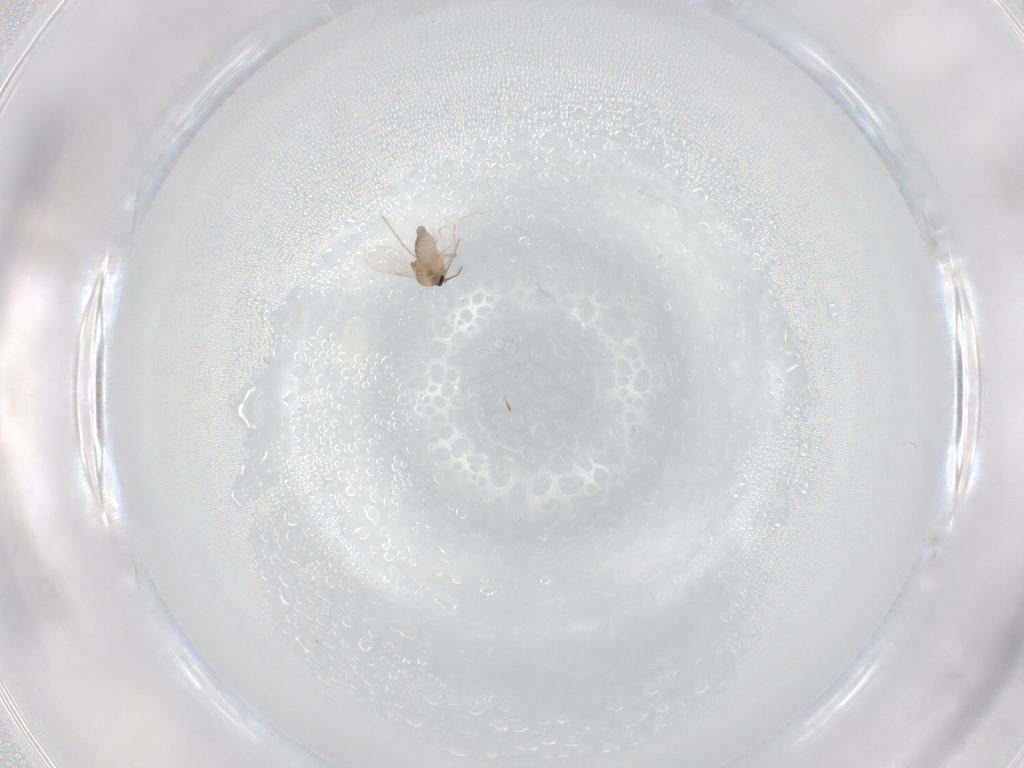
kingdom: Animalia
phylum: Arthropoda
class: Insecta
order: Diptera
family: Ceratopogonidae
